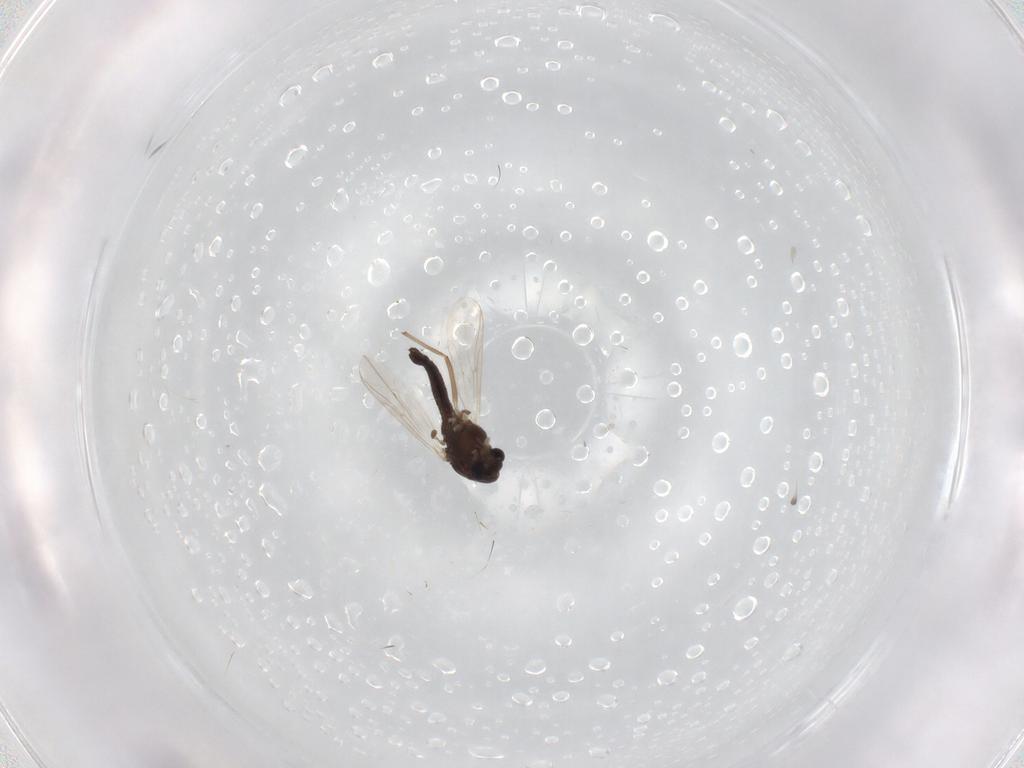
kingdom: Animalia
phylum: Arthropoda
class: Insecta
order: Diptera
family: Chironomidae
